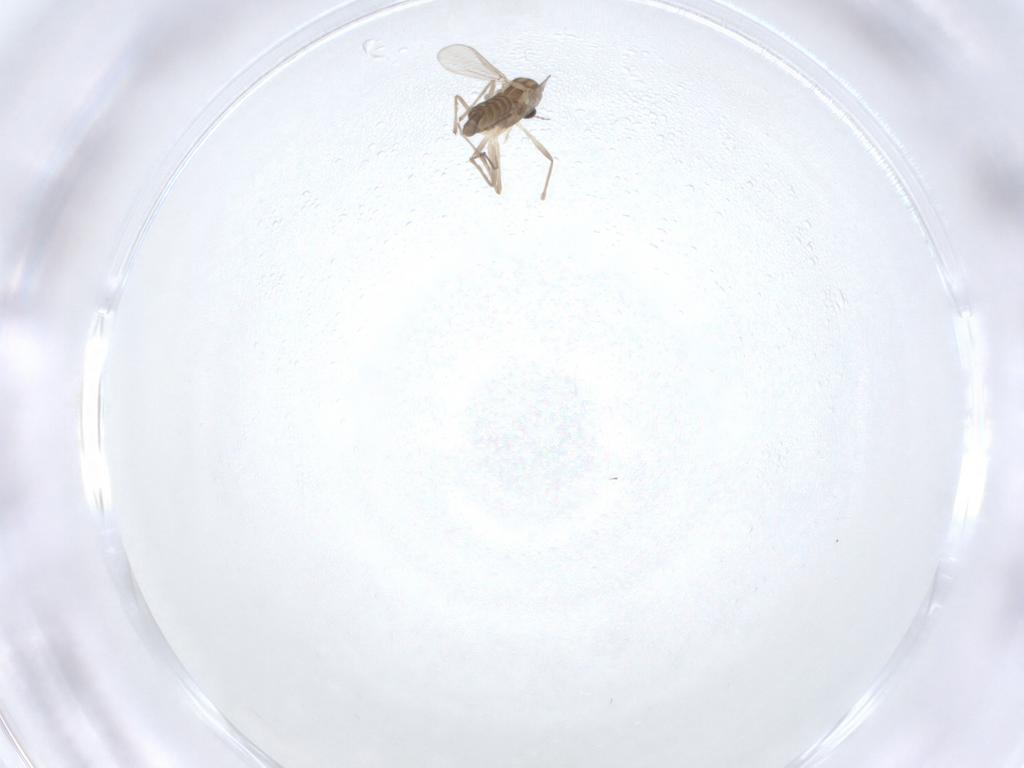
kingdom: Animalia
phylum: Arthropoda
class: Insecta
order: Diptera
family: Chironomidae
